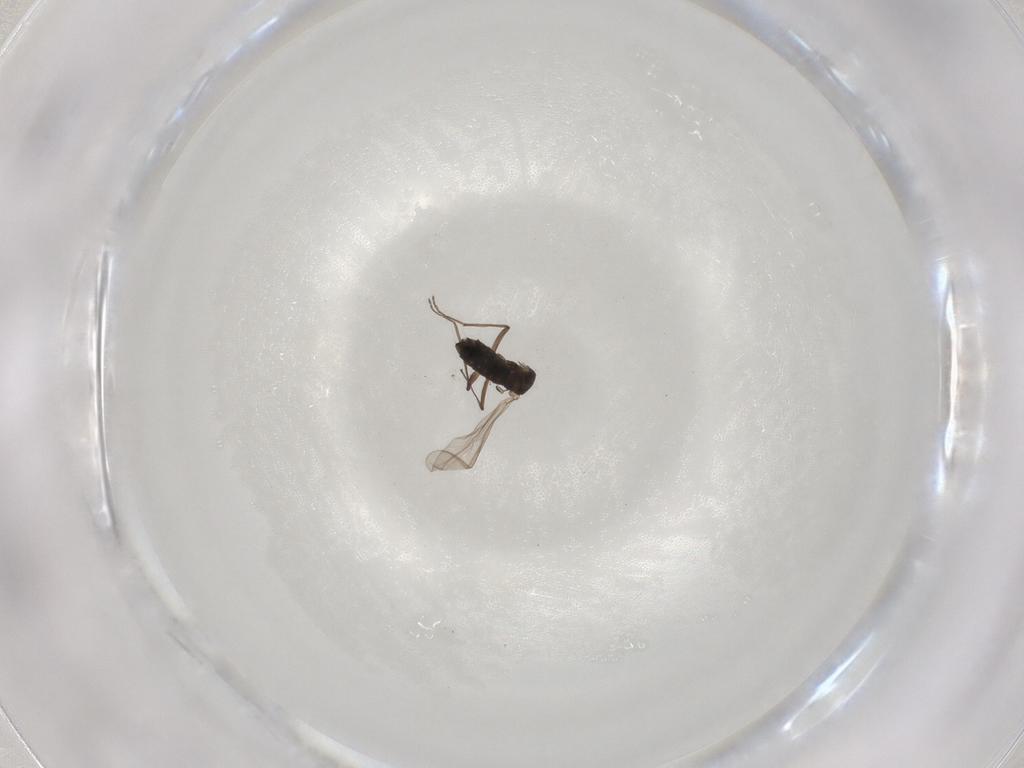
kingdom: Animalia
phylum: Arthropoda
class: Insecta
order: Diptera
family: Chironomidae
